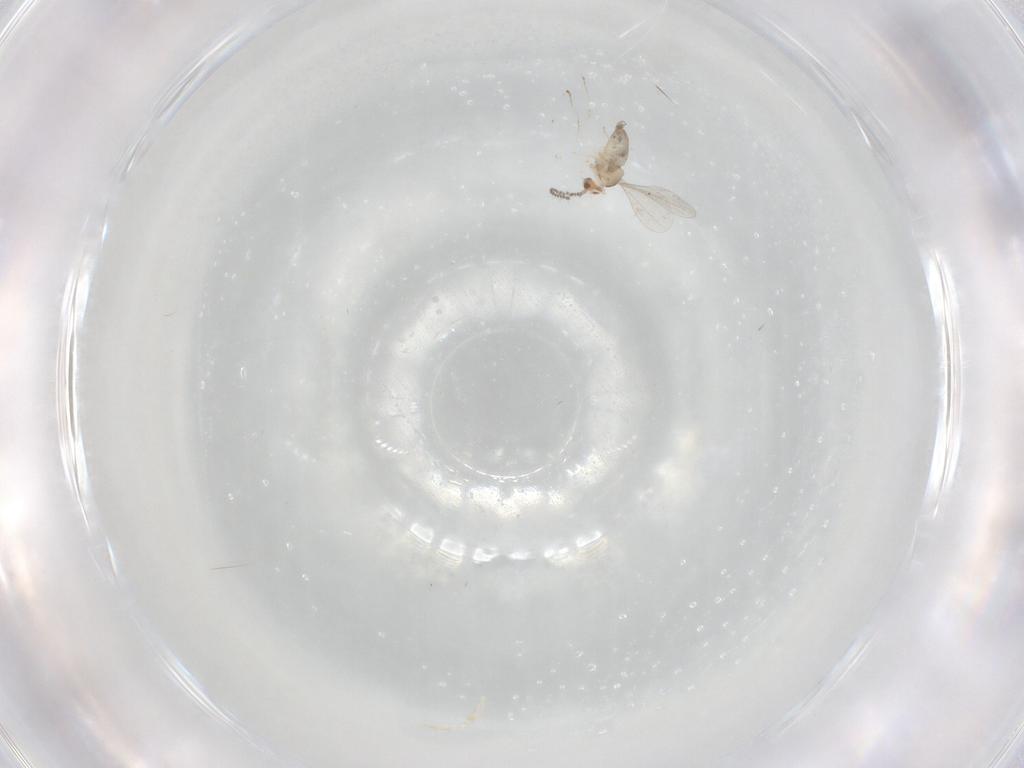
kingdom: Animalia
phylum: Arthropoda
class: Insecta
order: Diptera
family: Cecidomyiidae
